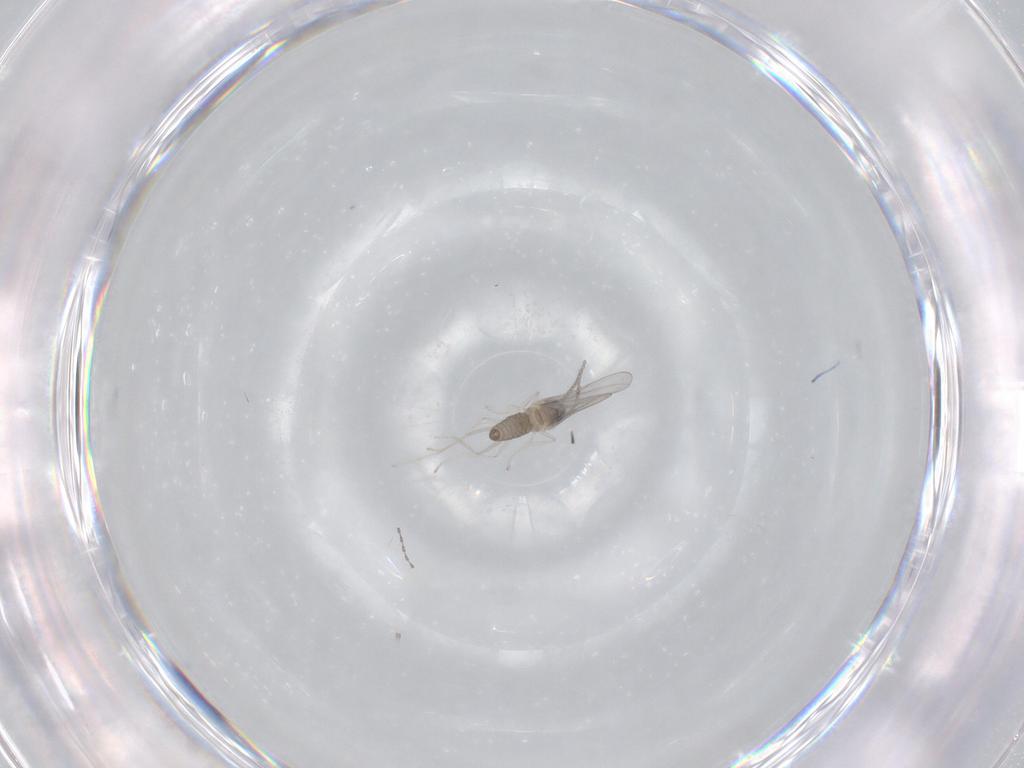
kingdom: Animalia
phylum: Arthropoda
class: Insecta
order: Diptera
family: Cecidomyiidae
